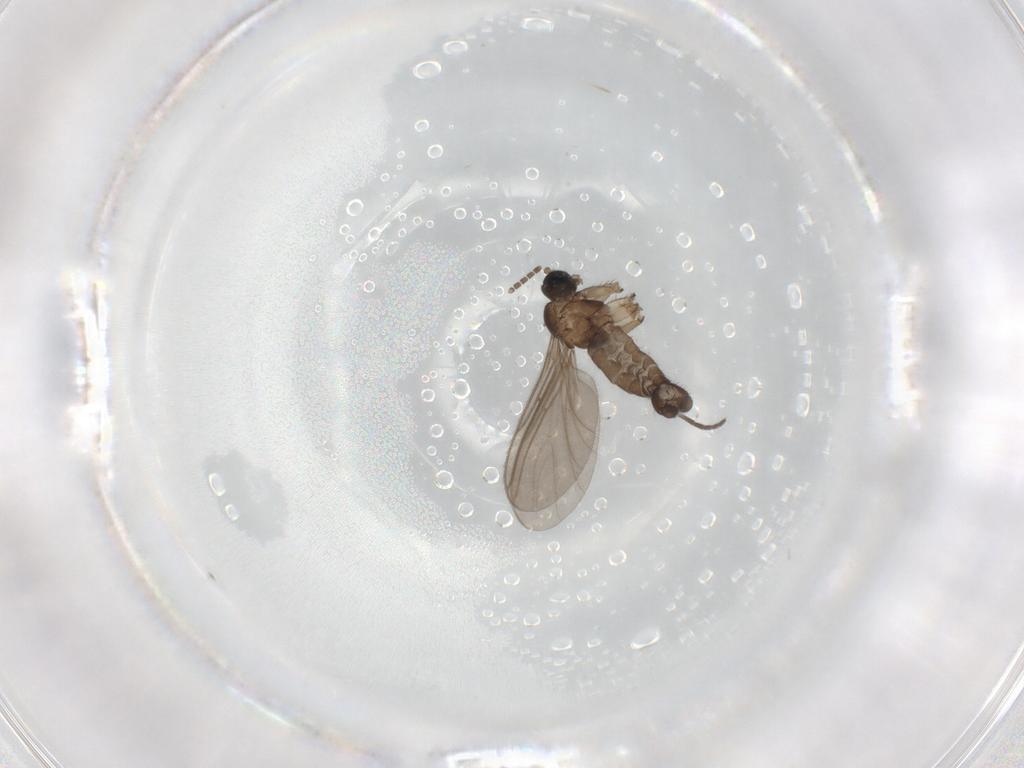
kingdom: Animalia
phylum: Arthropoda
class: Insecta
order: Diptera
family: Sciaridae
